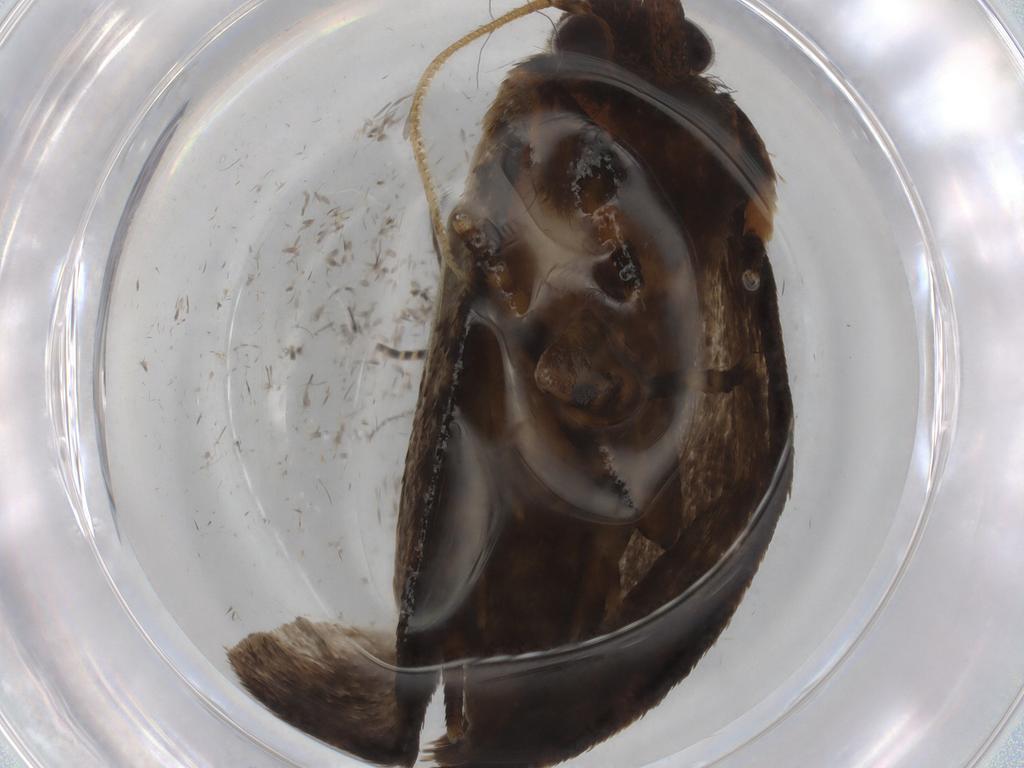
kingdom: Animalia
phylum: Arthropoda
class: Insecta
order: Lepidoptera
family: Tineidae
